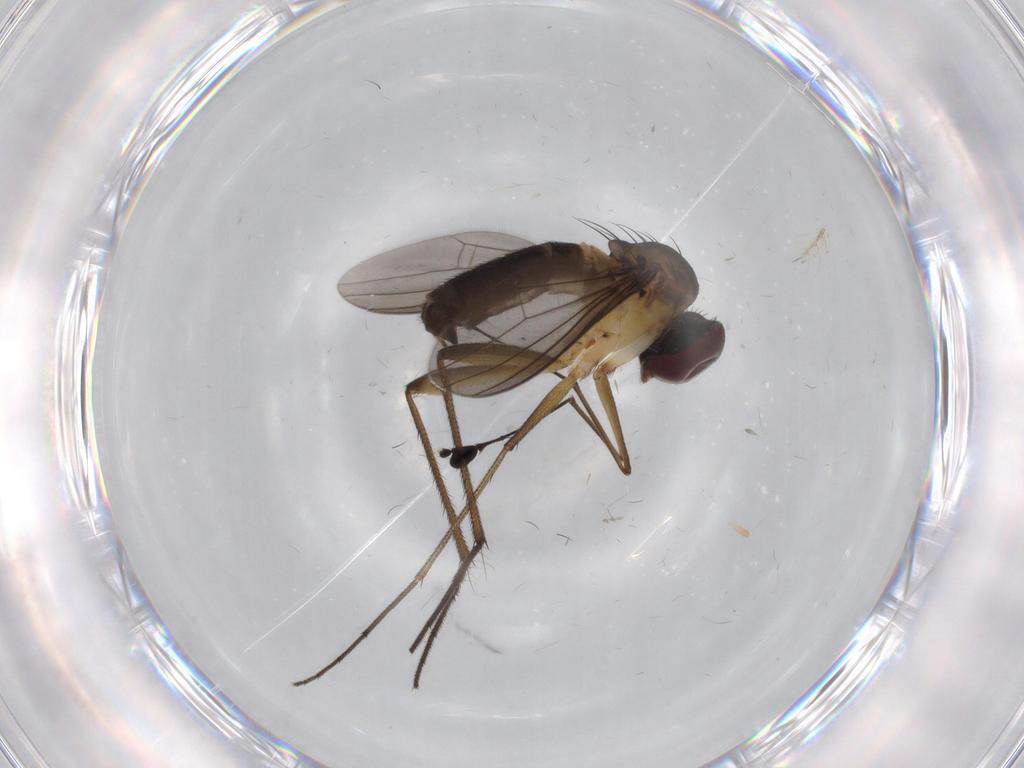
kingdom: Animalia
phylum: Arthropoda
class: Insecta
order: Diptera
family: Dolichopodidae
